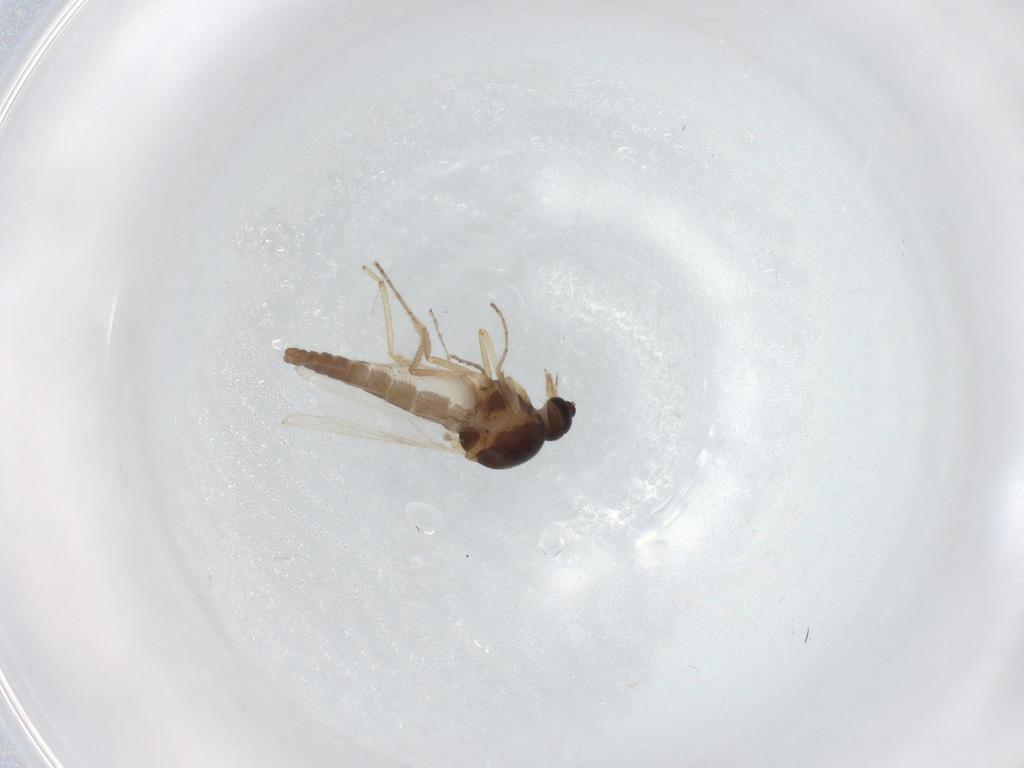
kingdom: Animalia
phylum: Arthropoda
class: Insecta
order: Diptera
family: Ceratopogonidae
